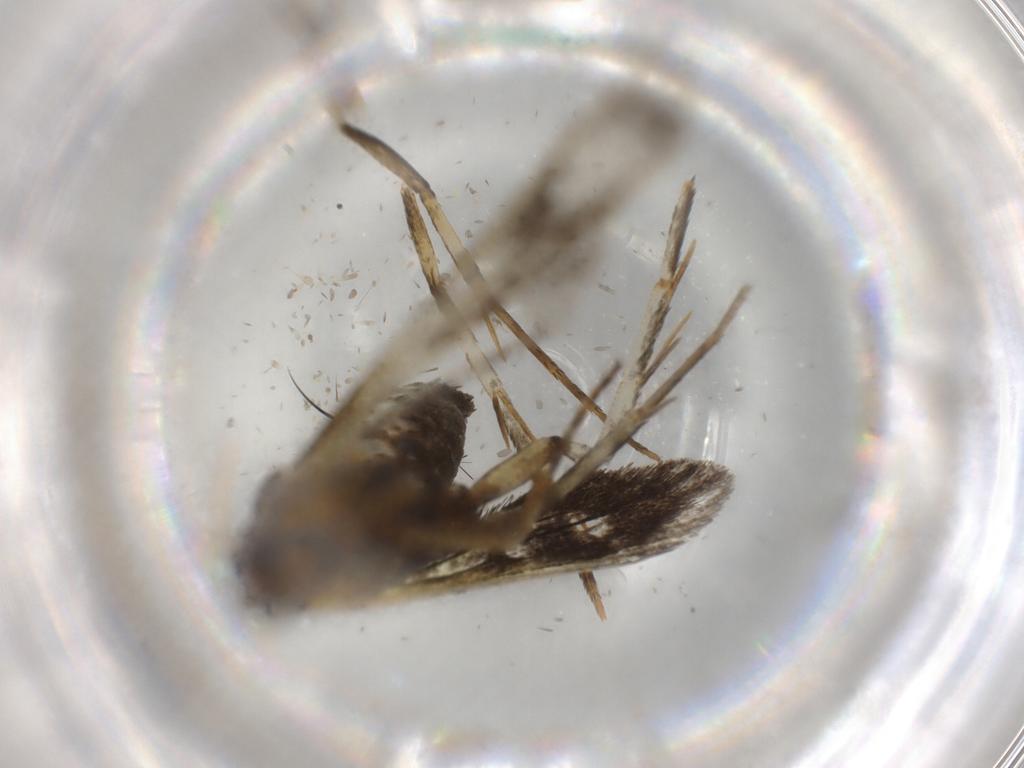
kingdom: Animalia
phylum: Arthropoda
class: Insecta
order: Lepidoptera
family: Sesiidae
